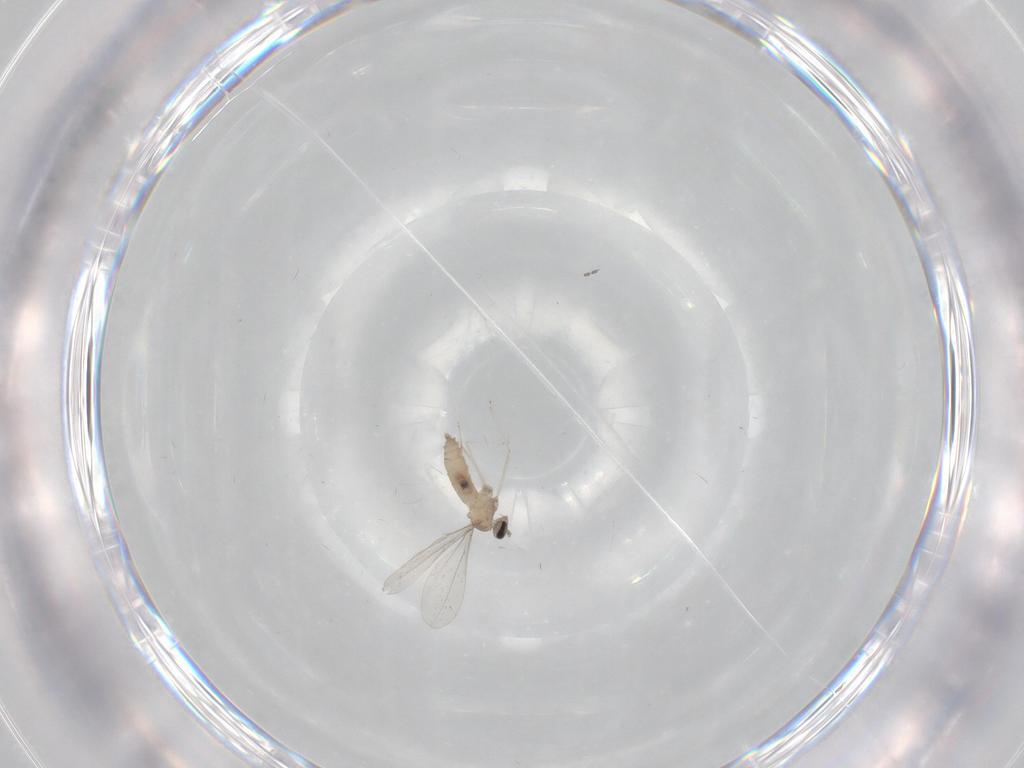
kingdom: Animalia
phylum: Arthropoda
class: Insecta
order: Diptera
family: Cecidomyiidae
